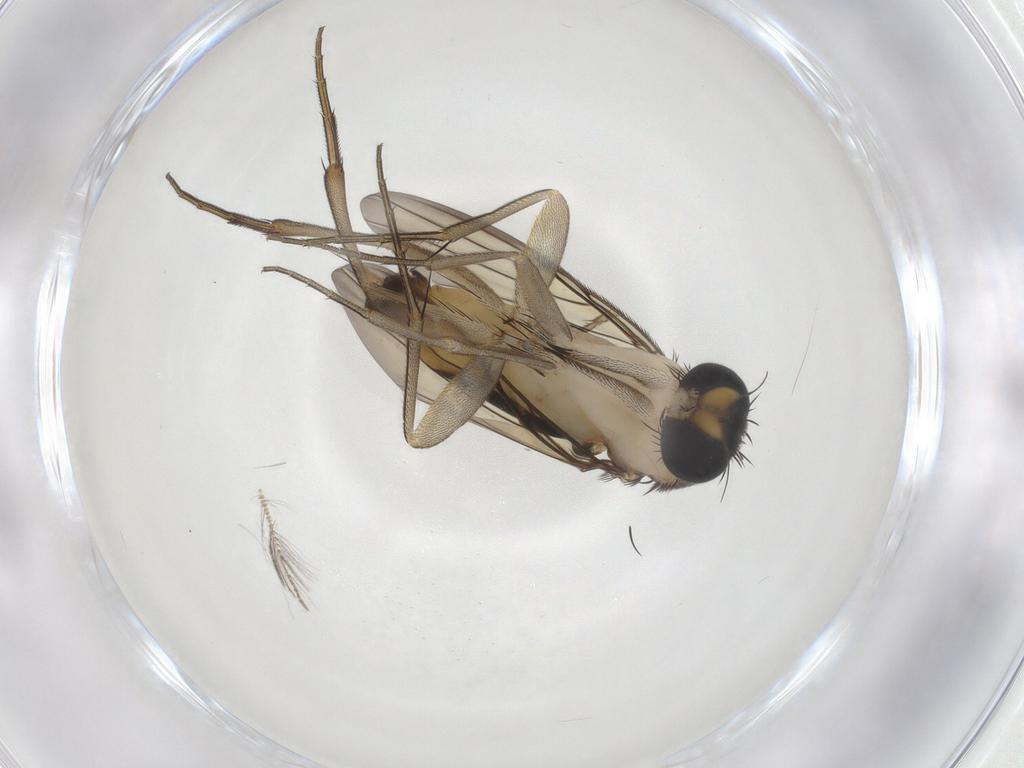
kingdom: Animalia
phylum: Arthropoda
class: Insecta
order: Diptera
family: Phoridae
